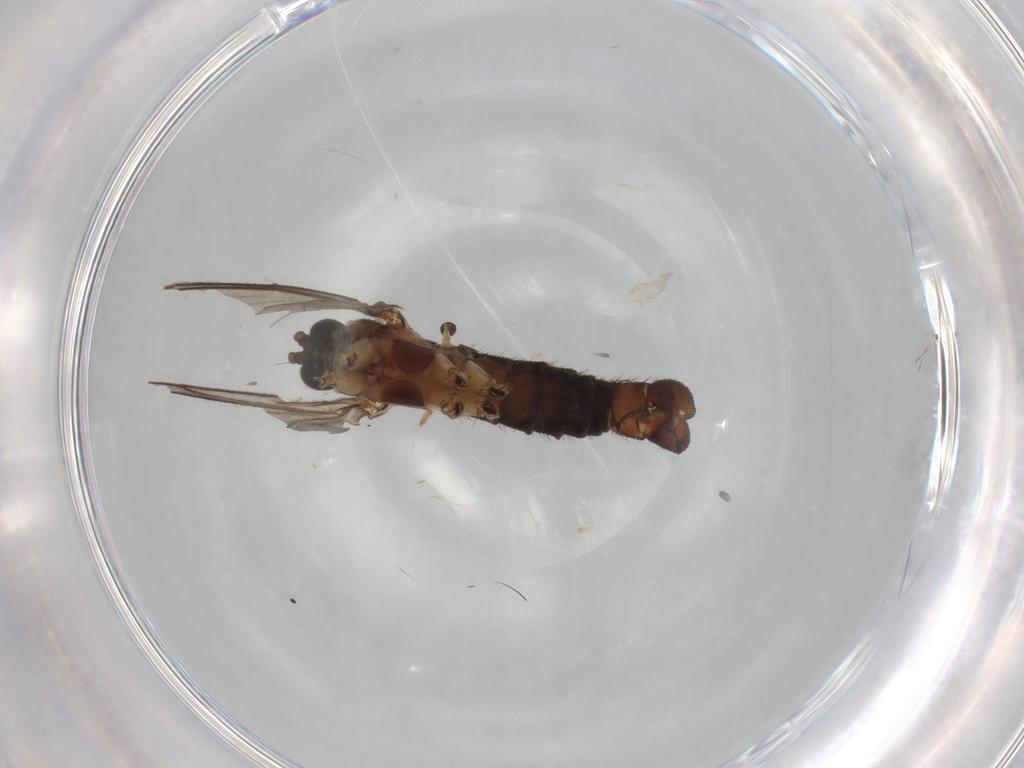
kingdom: Animalia
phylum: Arthropoda
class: Insecta
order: Diptera
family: Sciaridae
